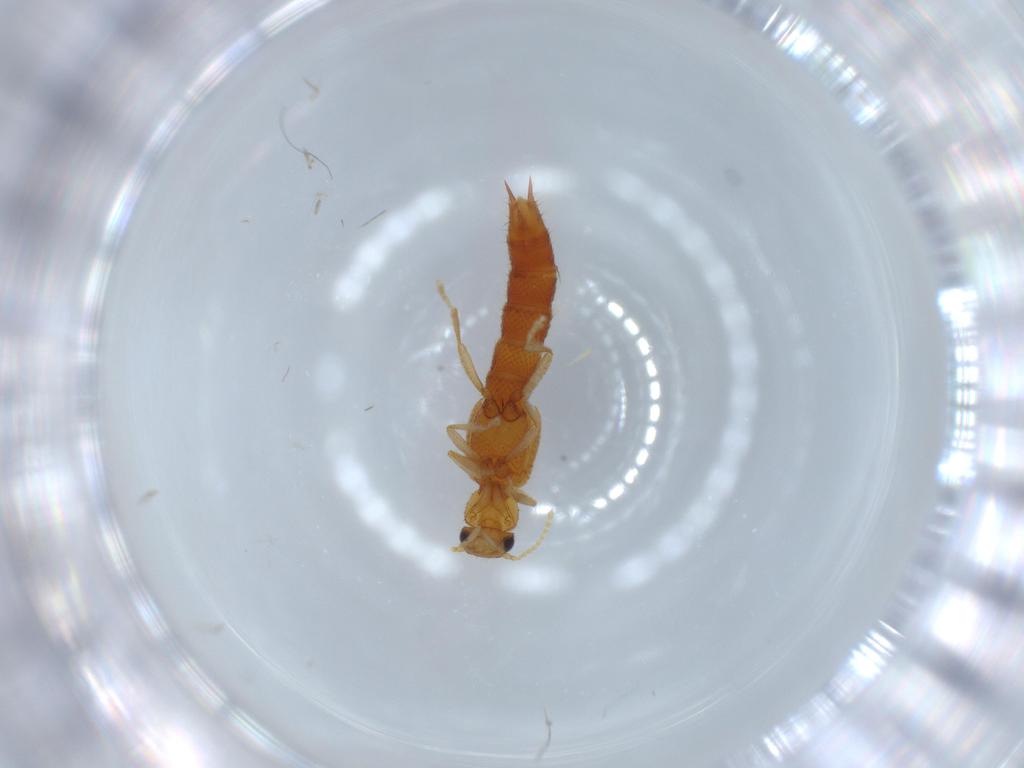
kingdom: Animalia
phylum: Arthropoda
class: Insecta
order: Coleoptera
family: Staphylinidae
